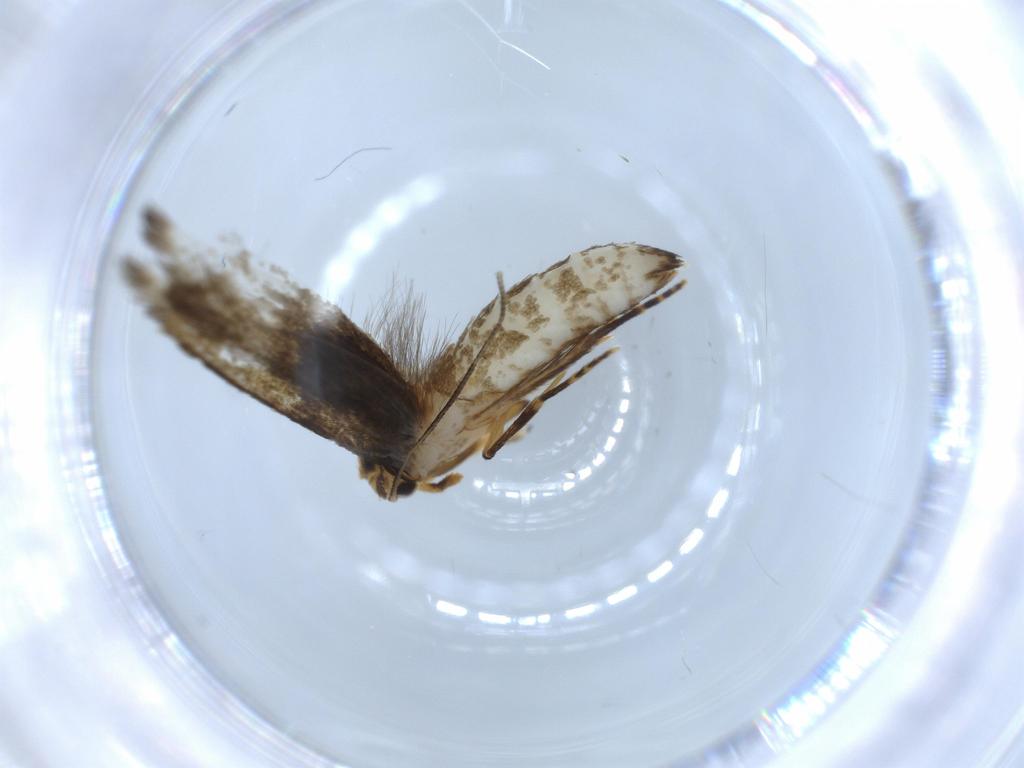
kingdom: Animalia
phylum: Arthropoda
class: Insecta
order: Lepidoptera
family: Tineidae
